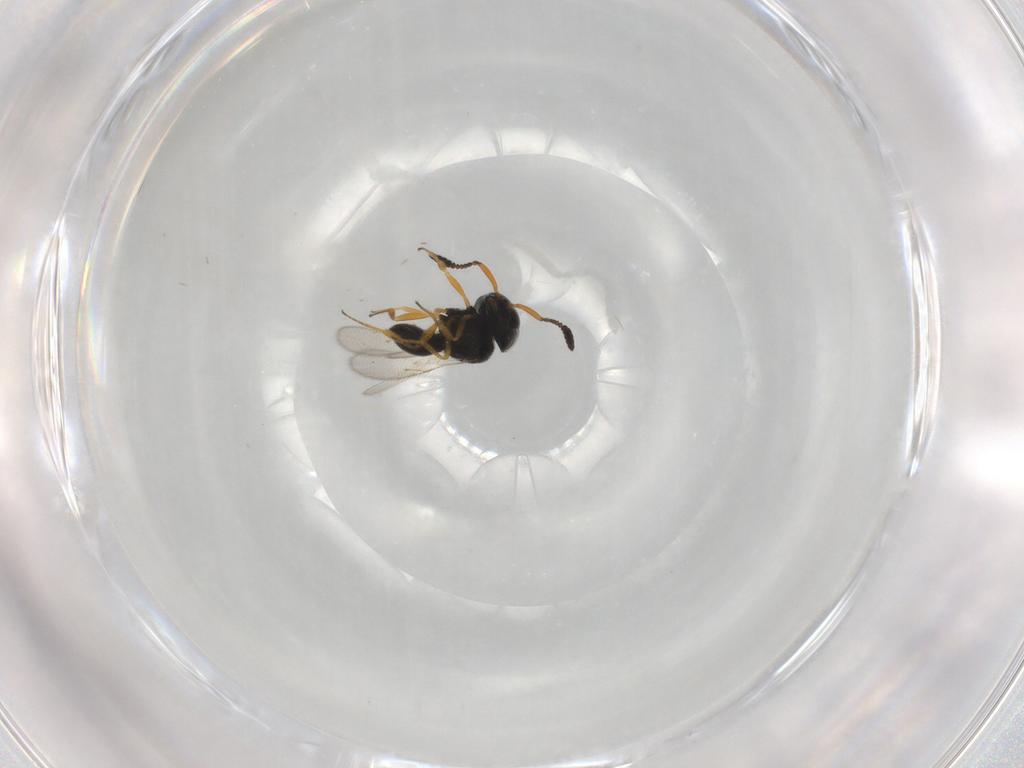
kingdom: Animalia
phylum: Arthropoda
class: Insecta
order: Hymenoptera
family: Scelionidae
